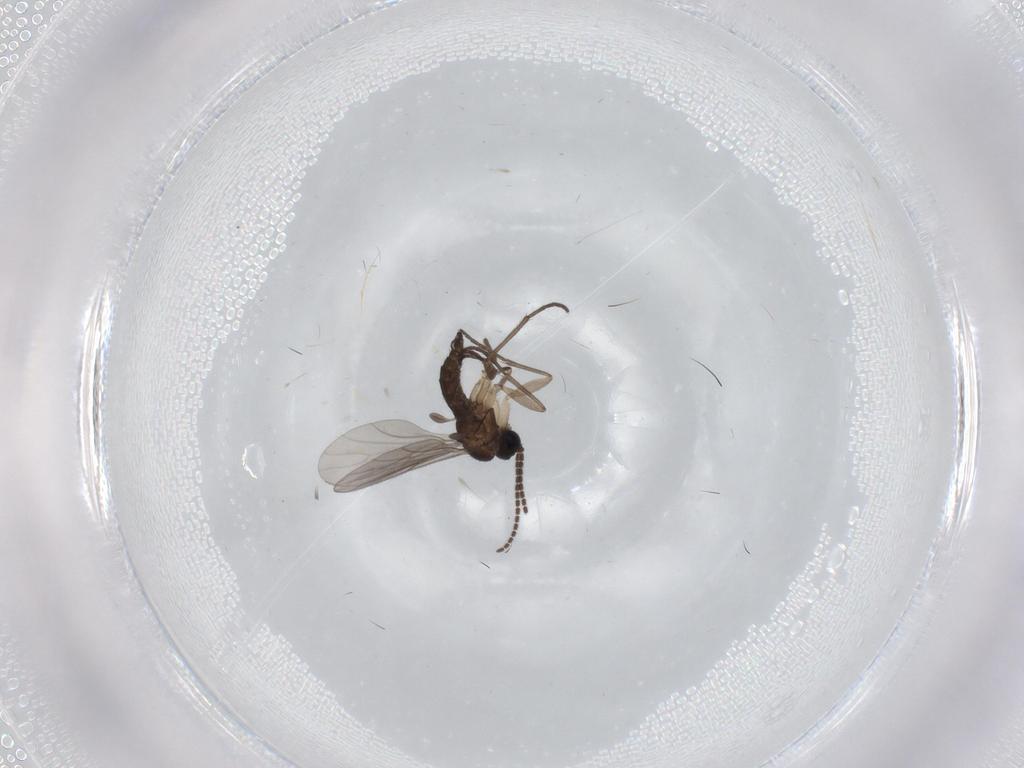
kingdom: Animalia
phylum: Arthropoda
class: Insecta
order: Diptera
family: Sciaridae
